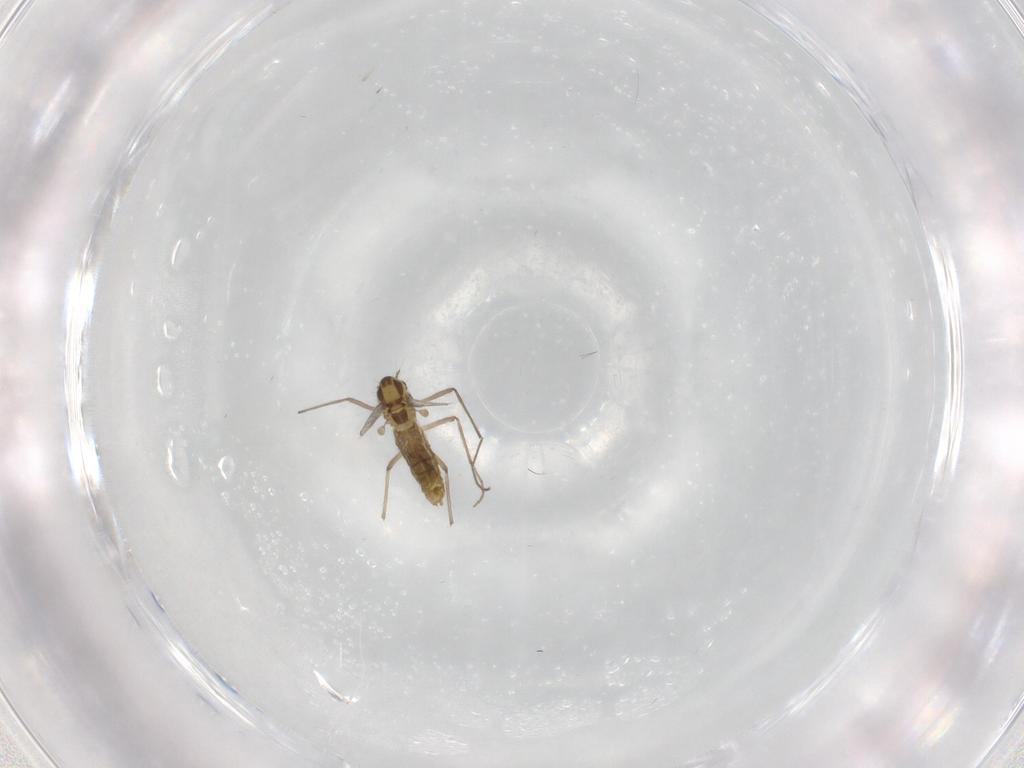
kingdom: Animalia
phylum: Arthropoda
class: Insecta
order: Diptera
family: Chironomidae
